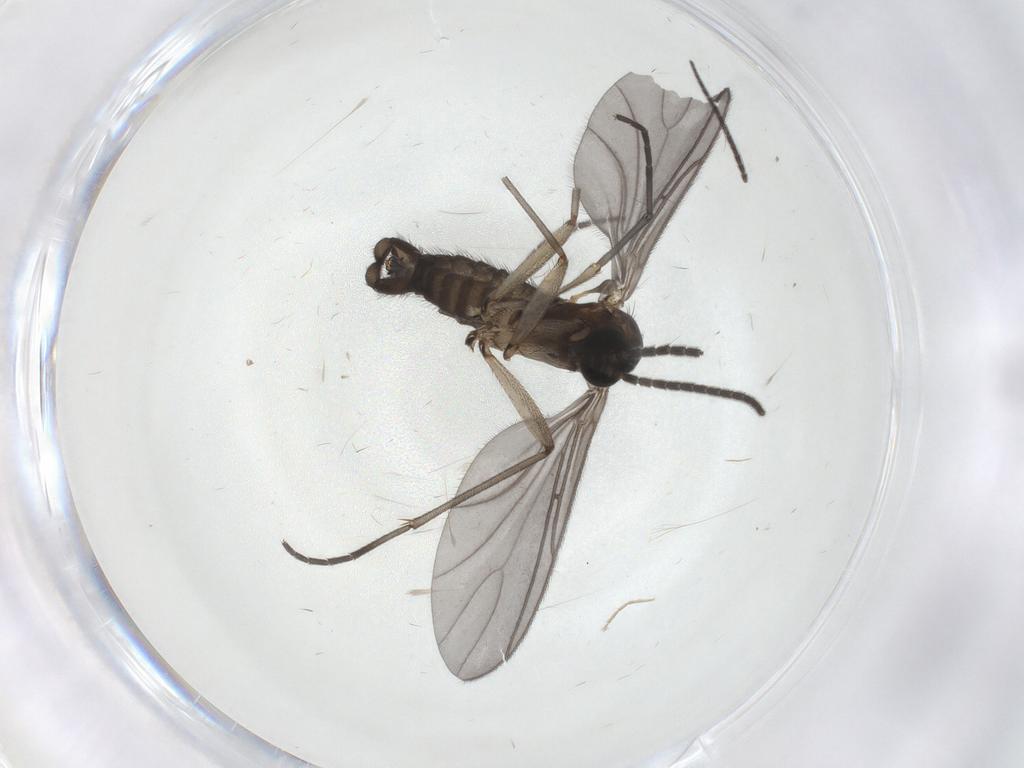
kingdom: Animalia
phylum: Arthropoda
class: Insecta
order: Diptera
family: Sciaridae
